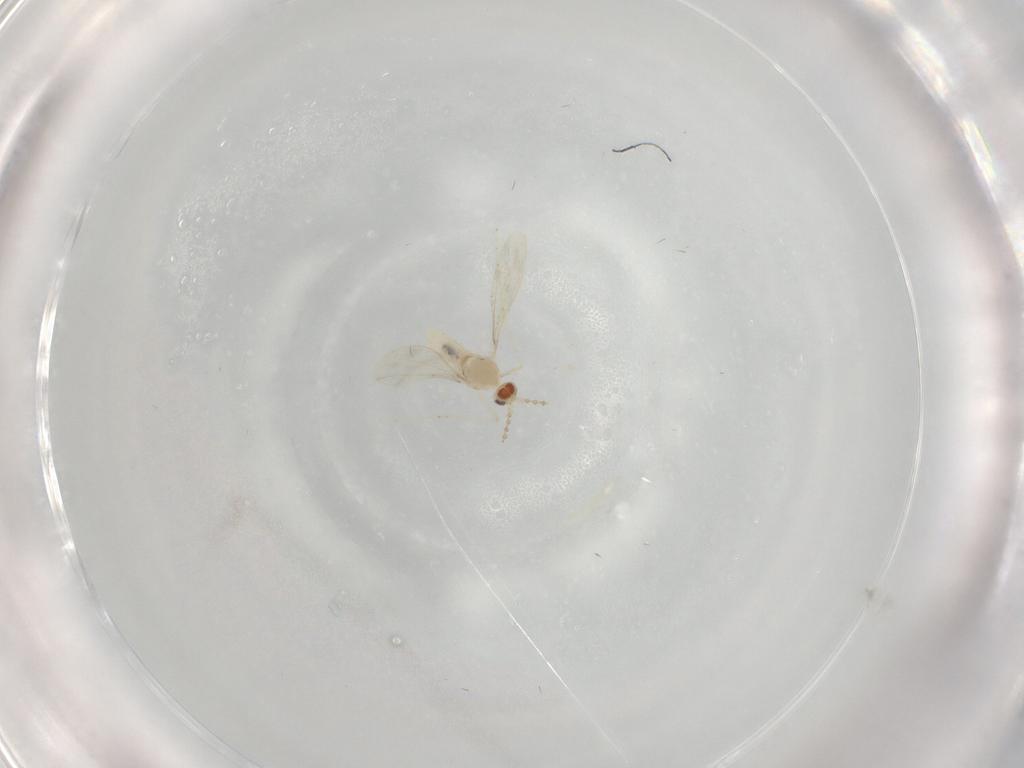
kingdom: Animalia
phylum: Arthropoda
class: Insecta
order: Diptera
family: Cecidomyiidae
